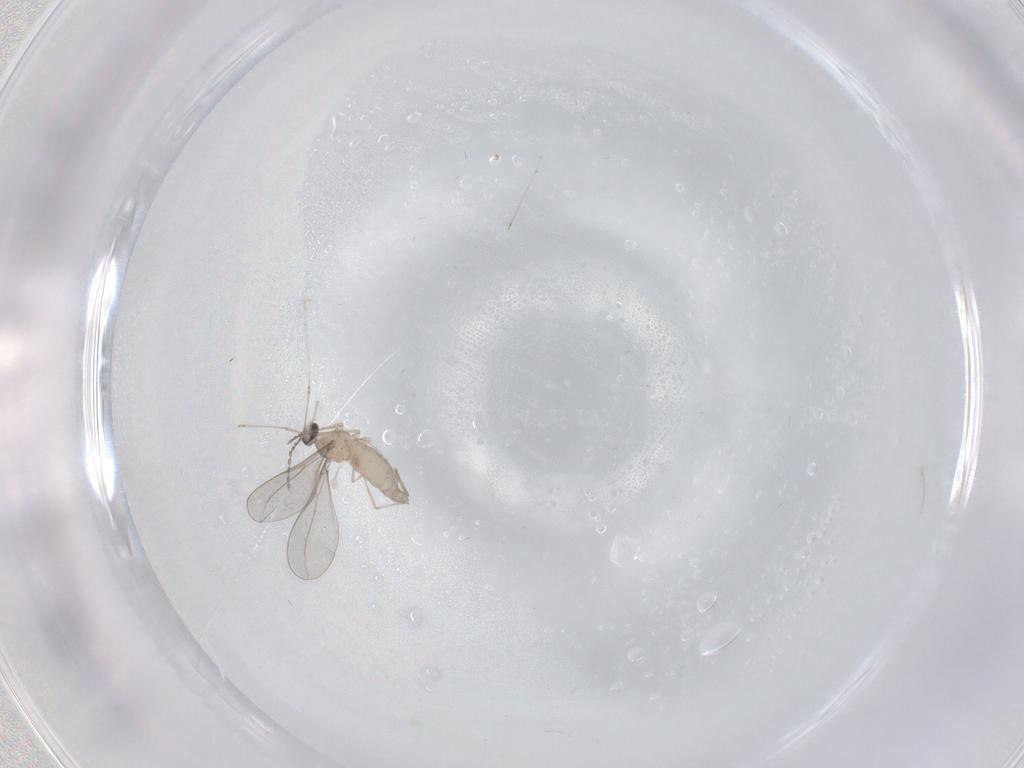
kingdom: Animalia
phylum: Arthropoda
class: Insecta
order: Diptera
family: Cecidomyiidae
